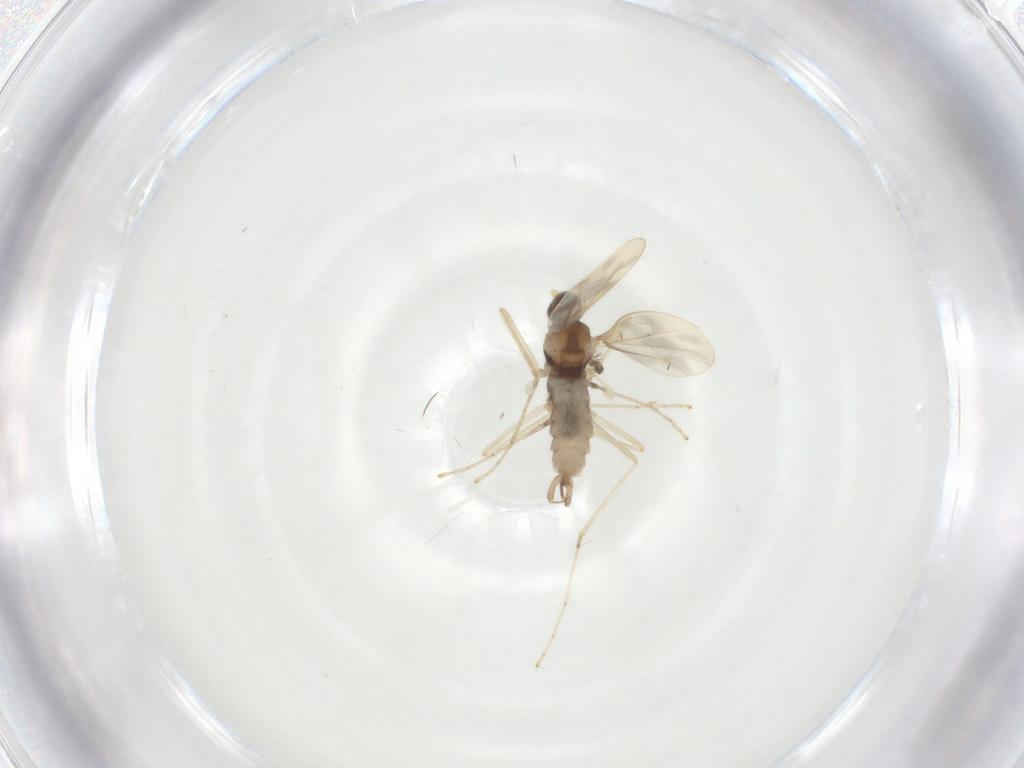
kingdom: Animalia
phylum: Arthropoda
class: Insecta
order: Diptera
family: Cecidomyiidae
